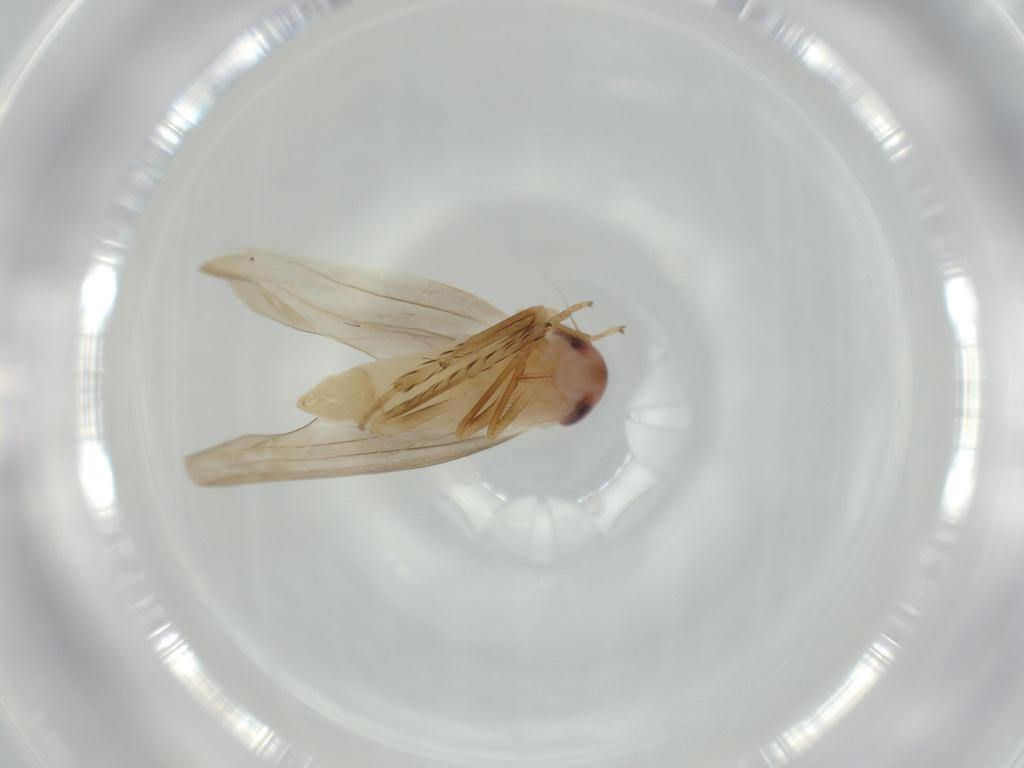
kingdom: Animalia
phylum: Arthropoda
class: Insecta
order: Hemiptera
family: Cicadellidae
